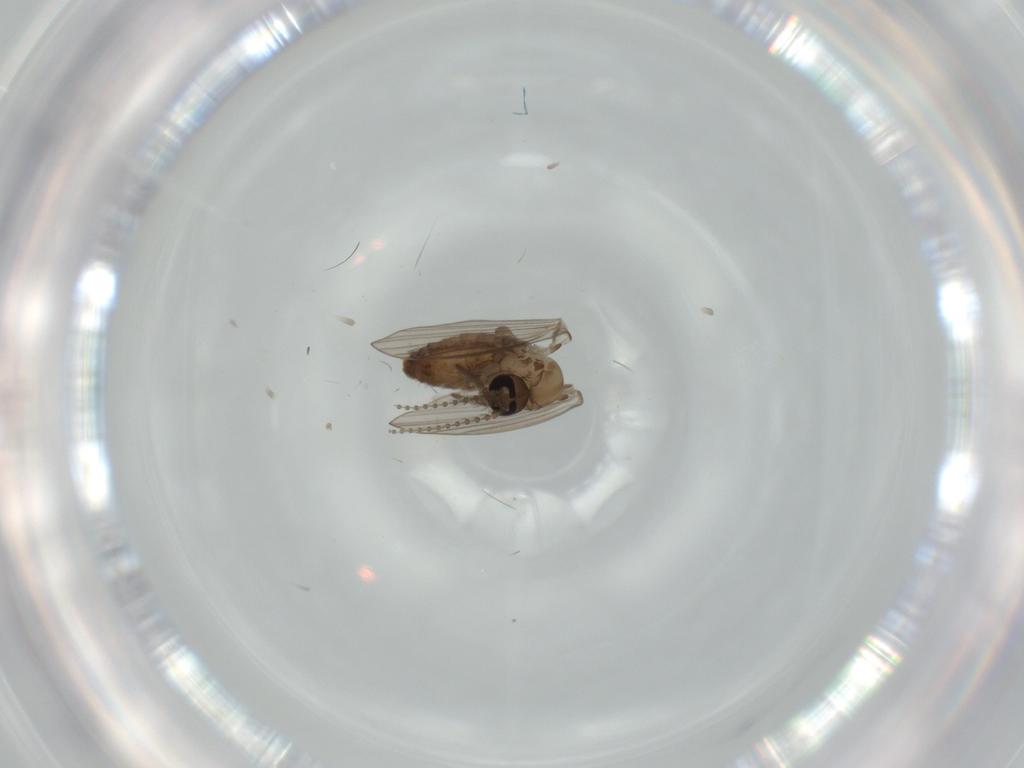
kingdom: Animalia
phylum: Arthropoda
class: Insecta
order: Diptera
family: Psychodidae
